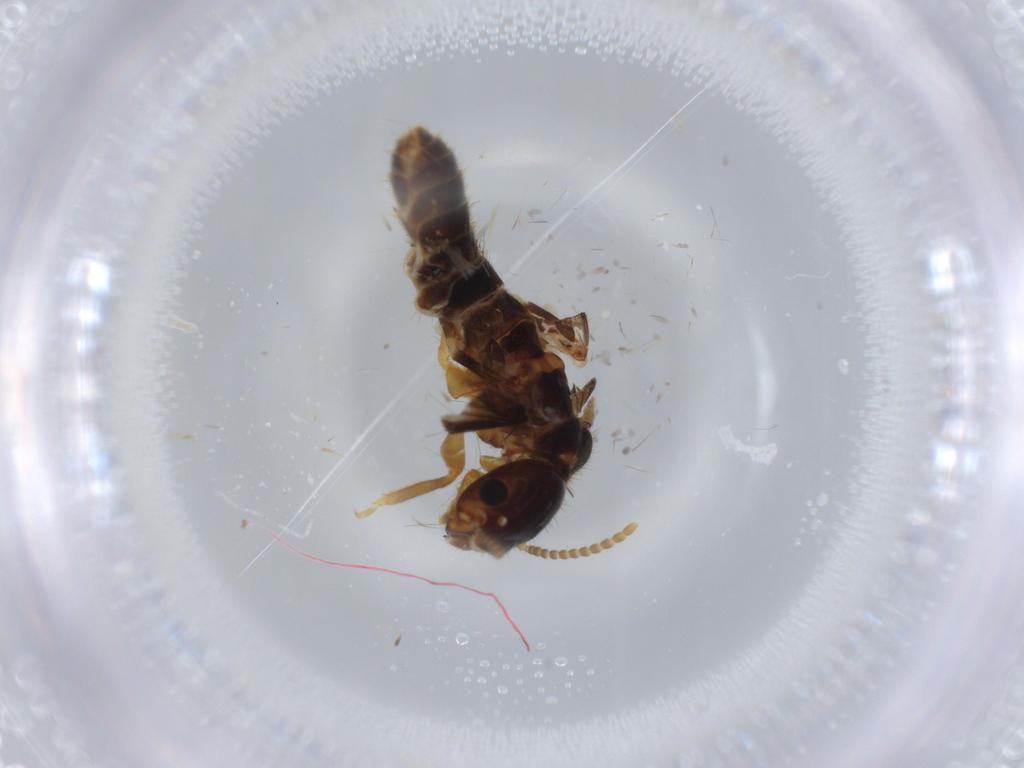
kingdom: Animalia
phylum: Arthropoda
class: Insecta
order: Blattodea
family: Termitidae
